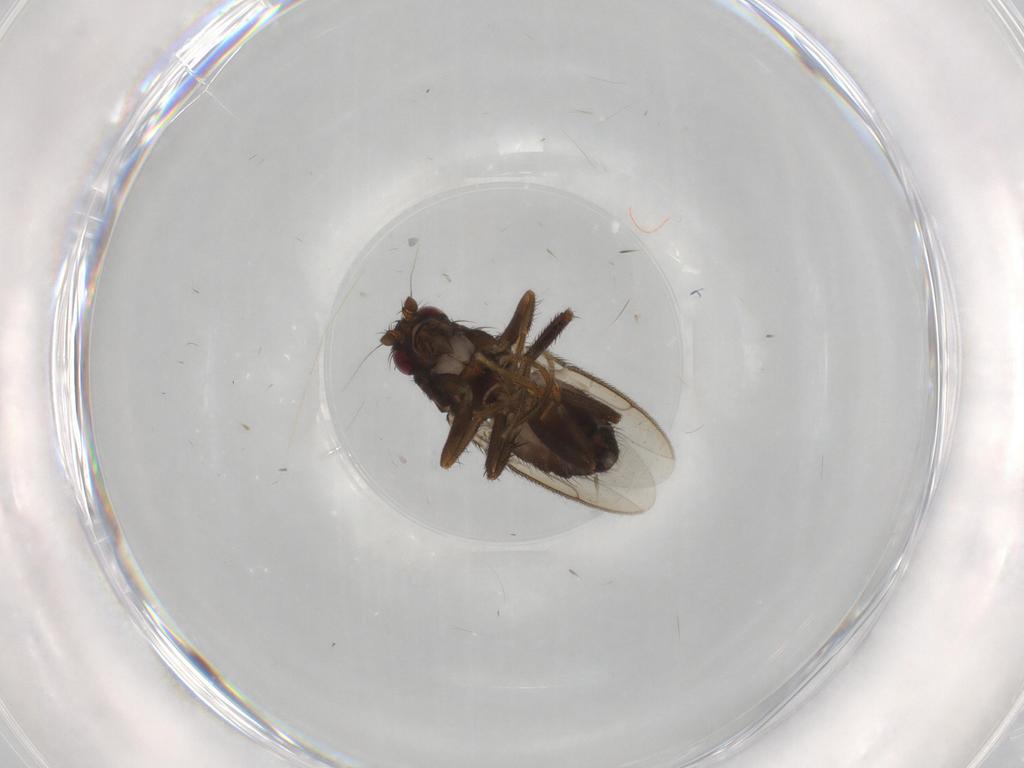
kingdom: Animalia
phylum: Arthropoda
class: Insecta
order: Diptera
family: Sphaeroceridae
